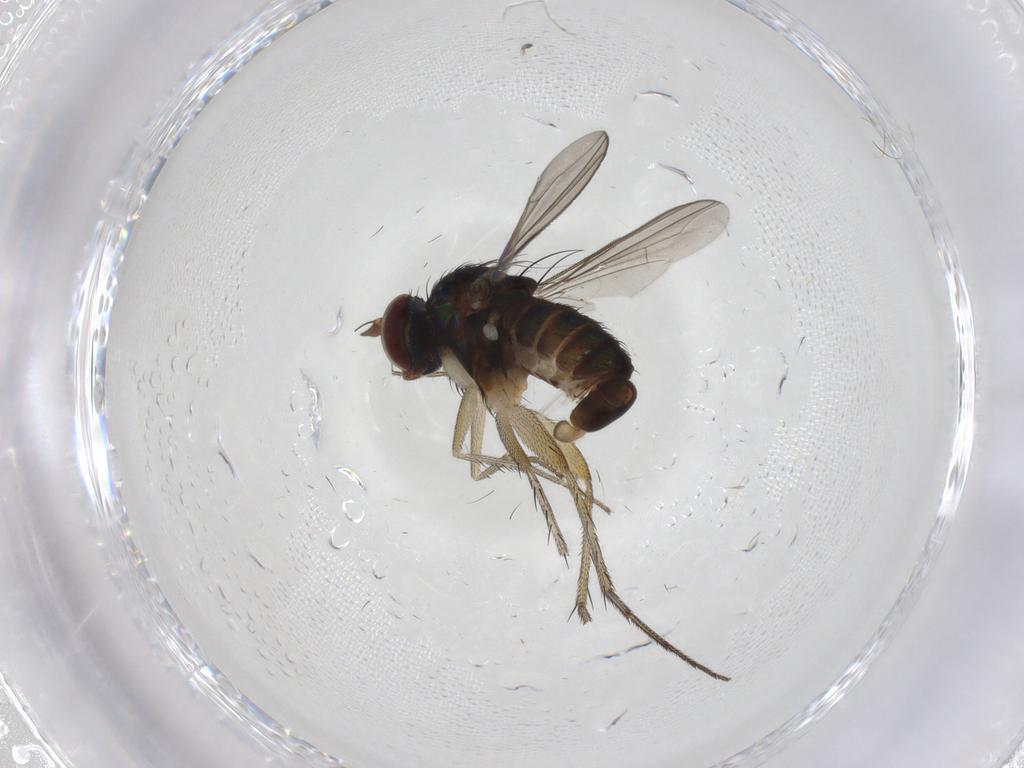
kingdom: Animalia
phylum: Arthropoda
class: Insecta
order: Diptera
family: Dolichopodidae
